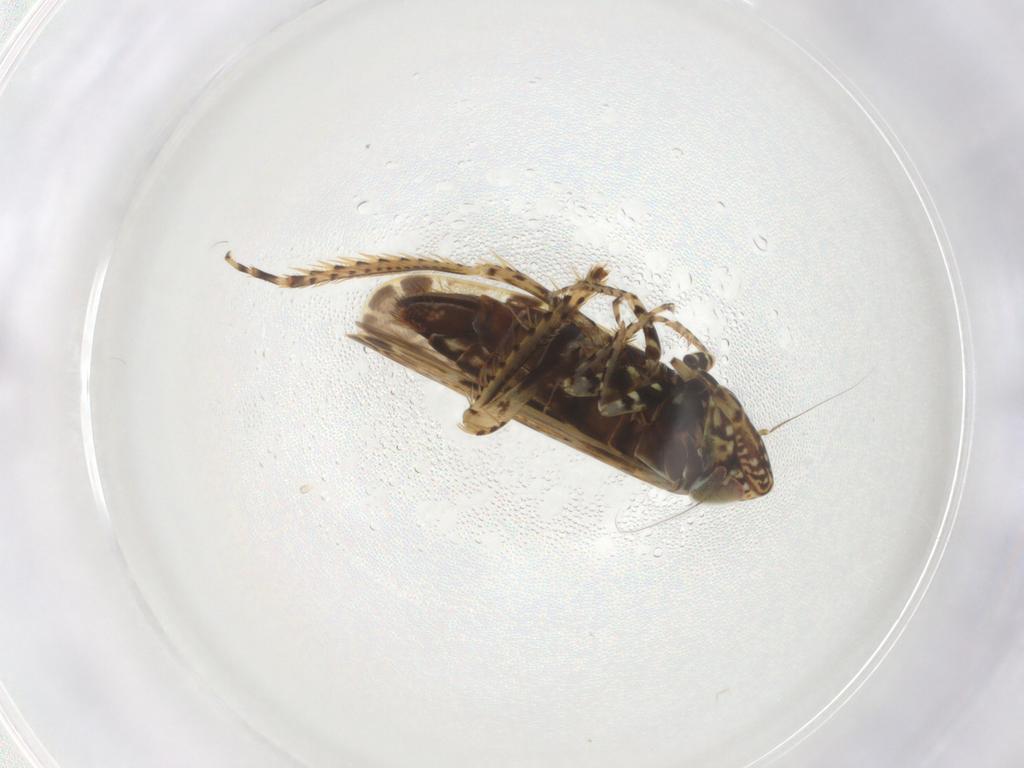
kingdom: Animalia
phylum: Arthropoda
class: Insecta
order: Hemiptera
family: Cicadellidae
